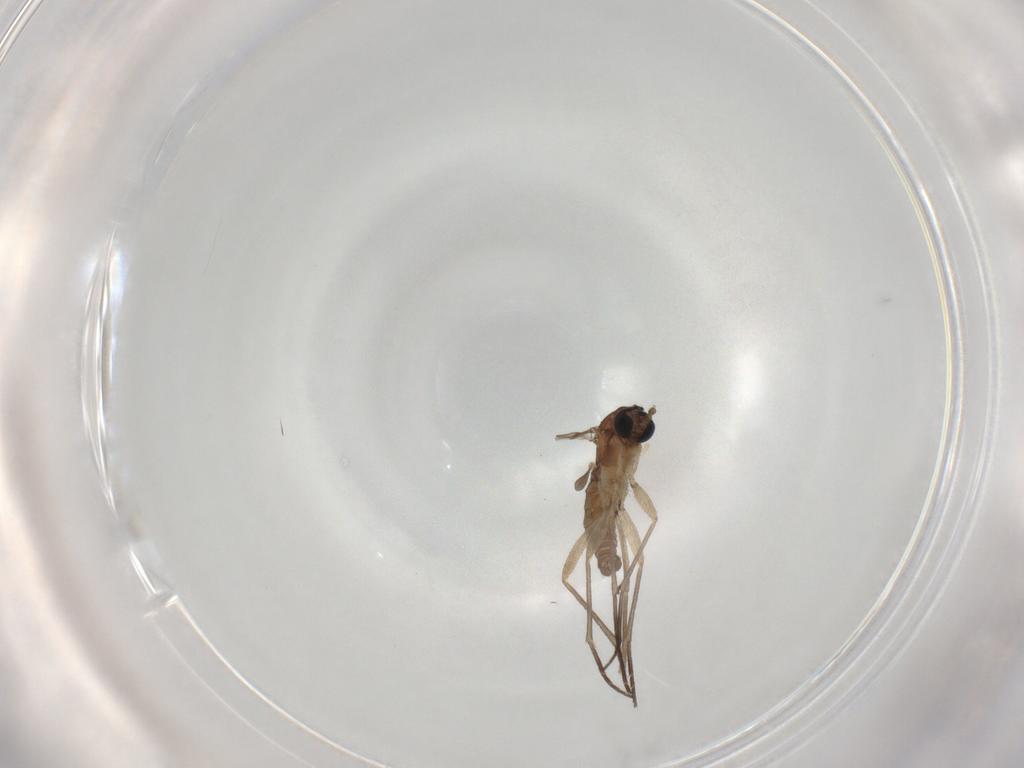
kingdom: Animalia
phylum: Arthropoda
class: Insecta
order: Diptera
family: Sciaridae
